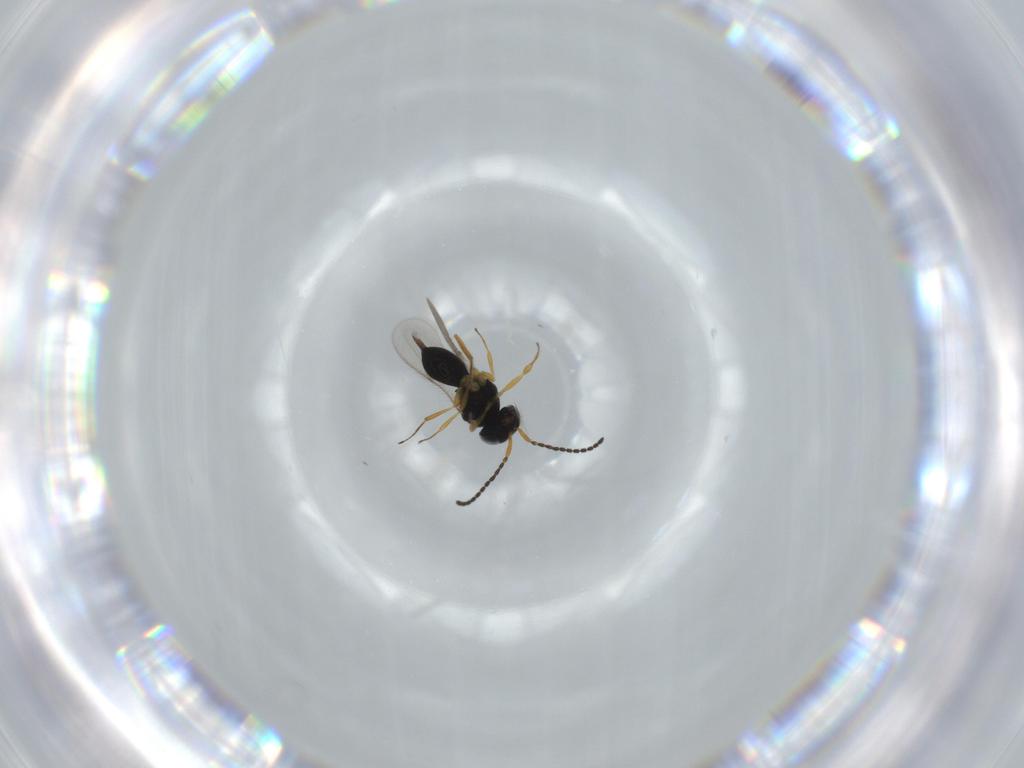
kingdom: Animalia
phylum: Arthropoda
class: Insecta
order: Hymenoptera
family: Scelionidae
